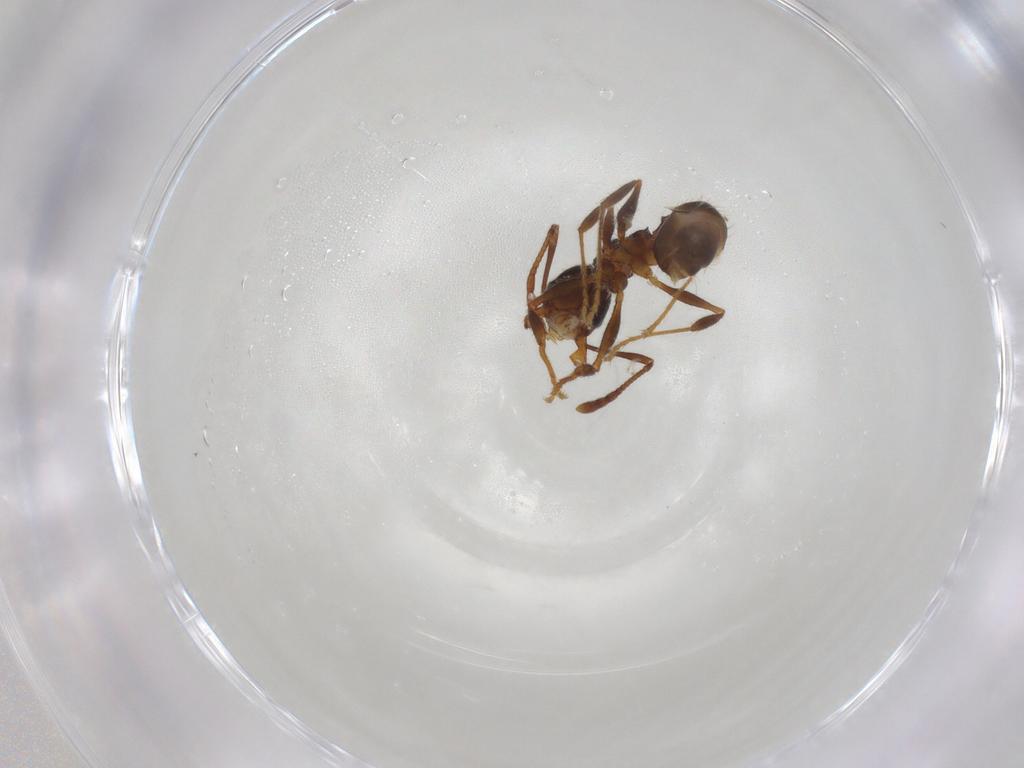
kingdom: Animalia
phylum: Arthropoda
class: Insecta
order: Hymenoptera
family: Formicidae
